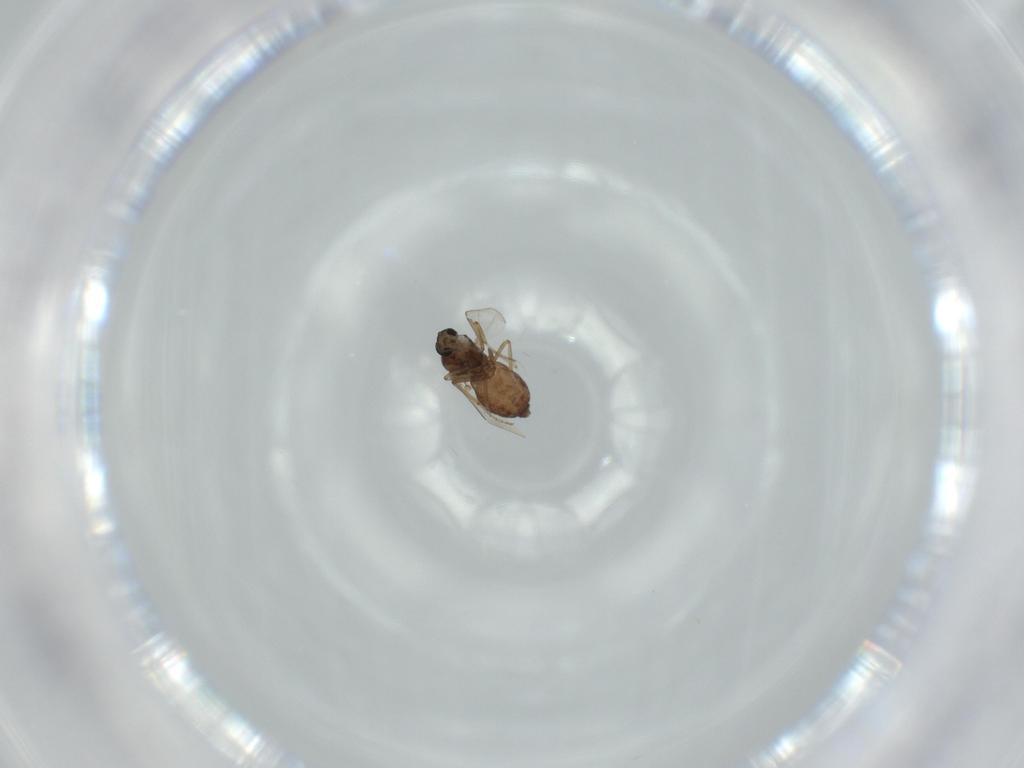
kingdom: Animalia
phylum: Arthropoda
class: Insecta
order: Diptera
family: Ceratopogonidae
